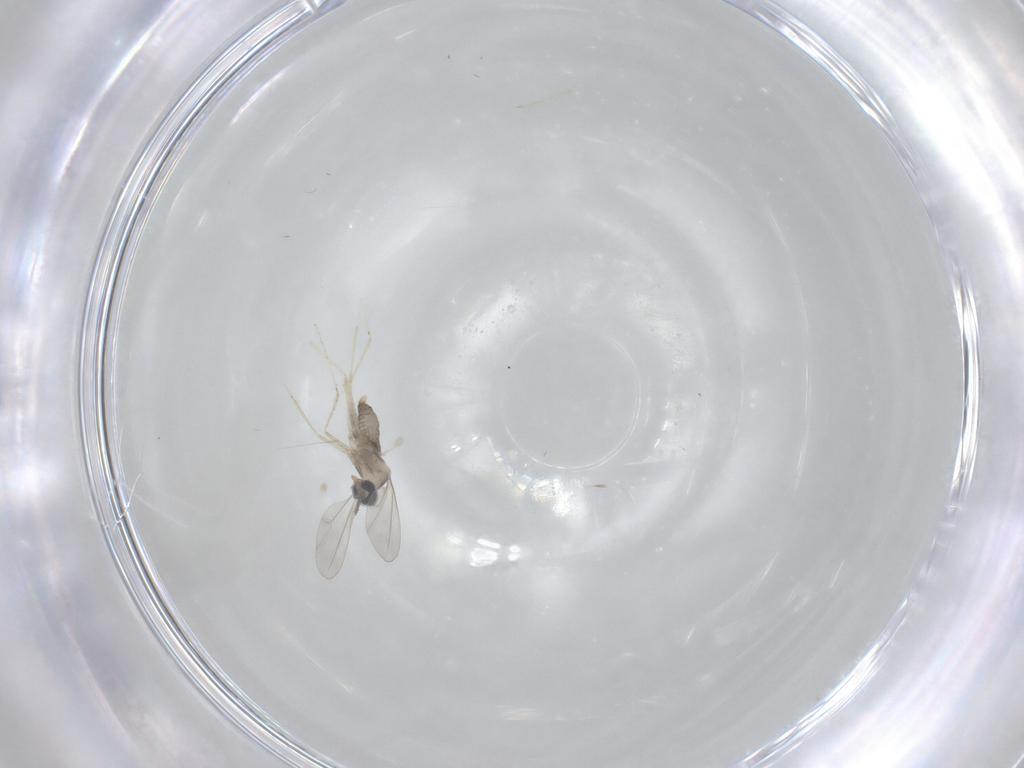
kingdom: Animalia
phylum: Arthropoda
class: Insecta
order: Diptera
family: Cecidomyiidae
